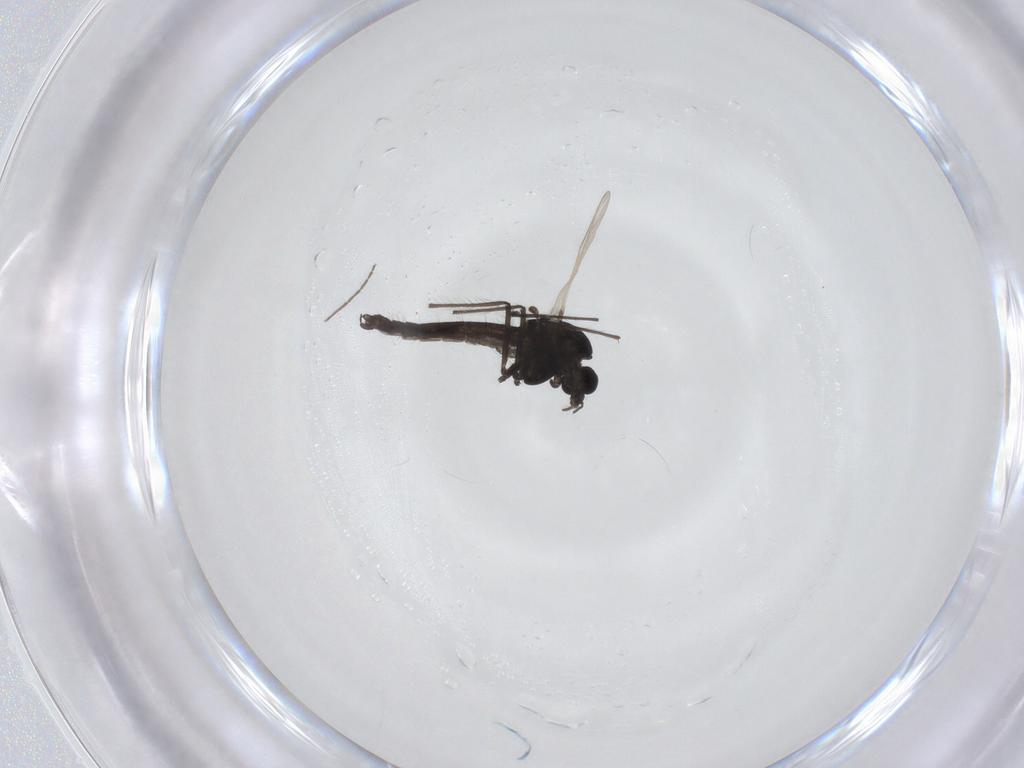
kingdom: Animalia
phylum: Arthropoda
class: Insecta
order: Diptera
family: Chironomidae
